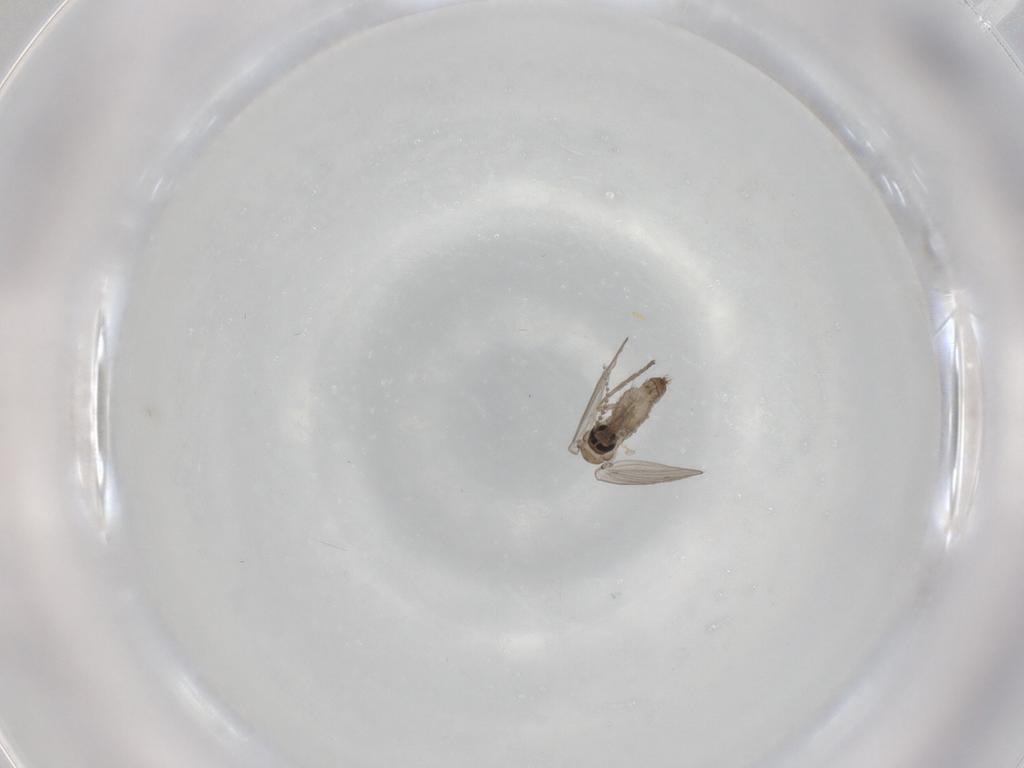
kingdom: Animalia
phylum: Arthropoda
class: Insecta
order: Diptera
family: Psychodidae
